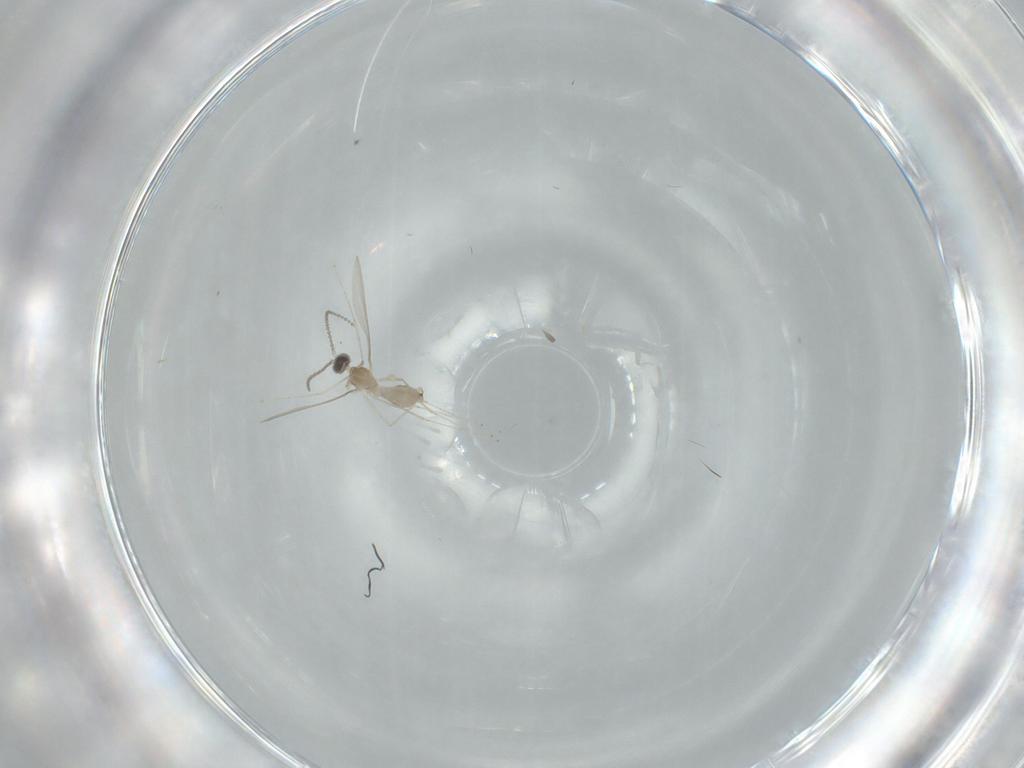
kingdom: Animalia
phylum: Arthropoda
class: Insecta
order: Diptera
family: Cecidomyiidae
